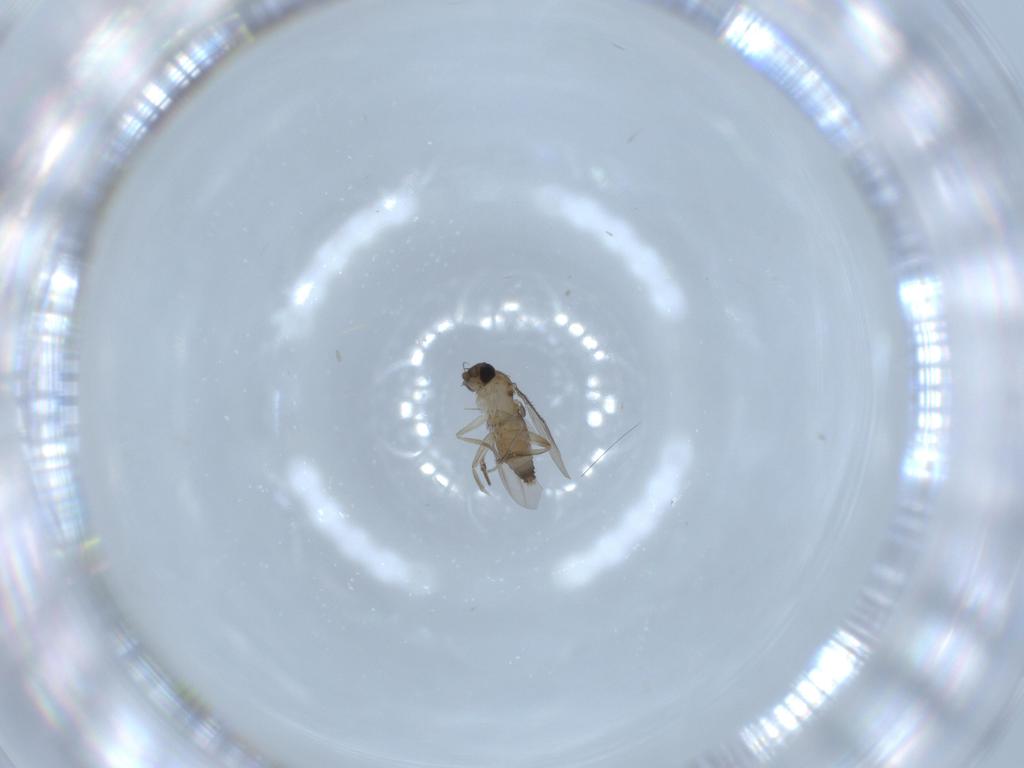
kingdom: Animalia
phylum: Arthropoda
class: Insecta
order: Diptera
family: Phoridae
